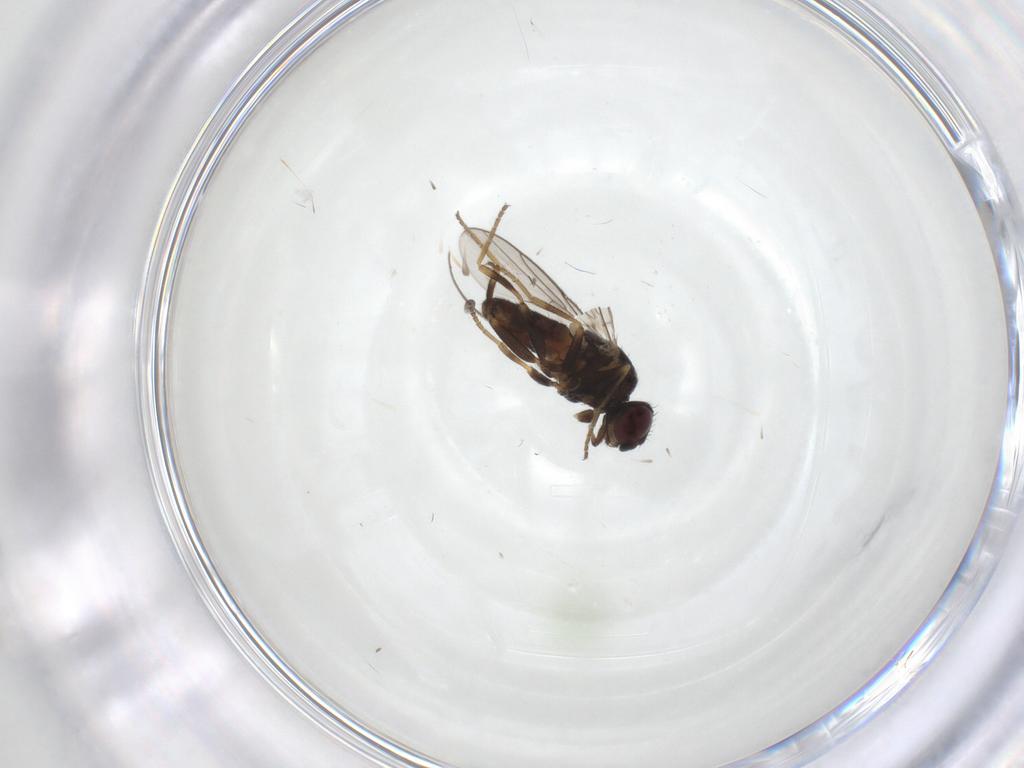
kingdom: Animalia
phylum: Arthropoda
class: Insecta
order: Diptera
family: Chloropidae
